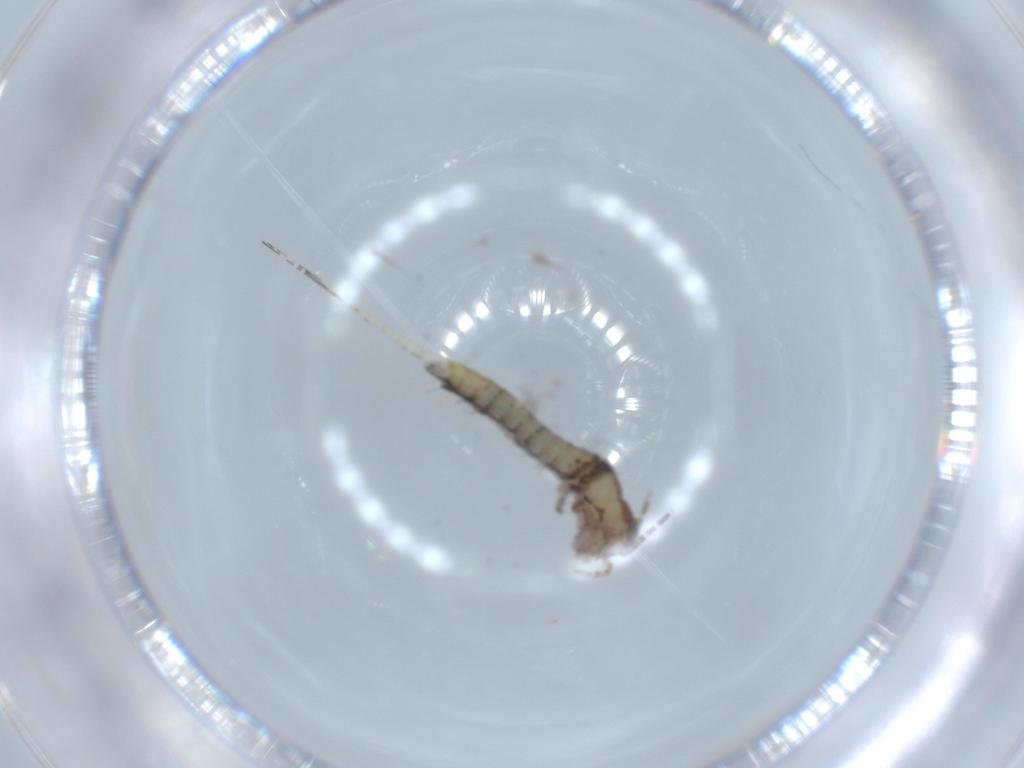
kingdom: Animalia
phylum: Arthropoda
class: Insecta
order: Archaeognatha
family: Machilidae
